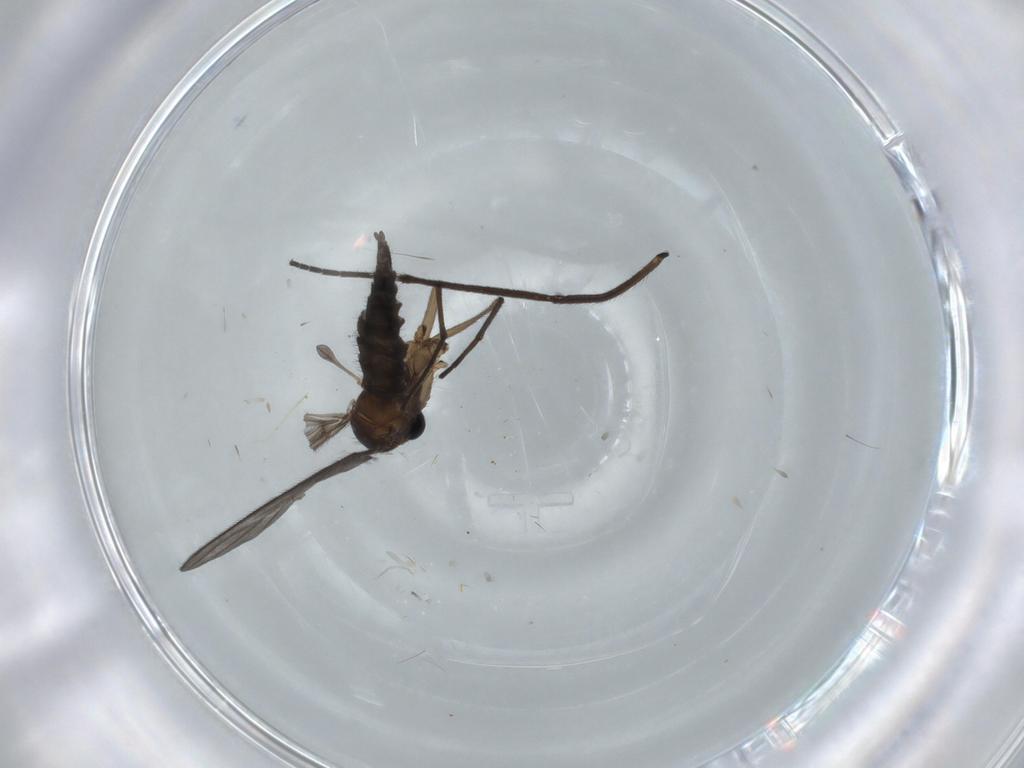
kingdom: Animalia
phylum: Arthropoda
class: Insecta
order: Diptera
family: Sciaridae
